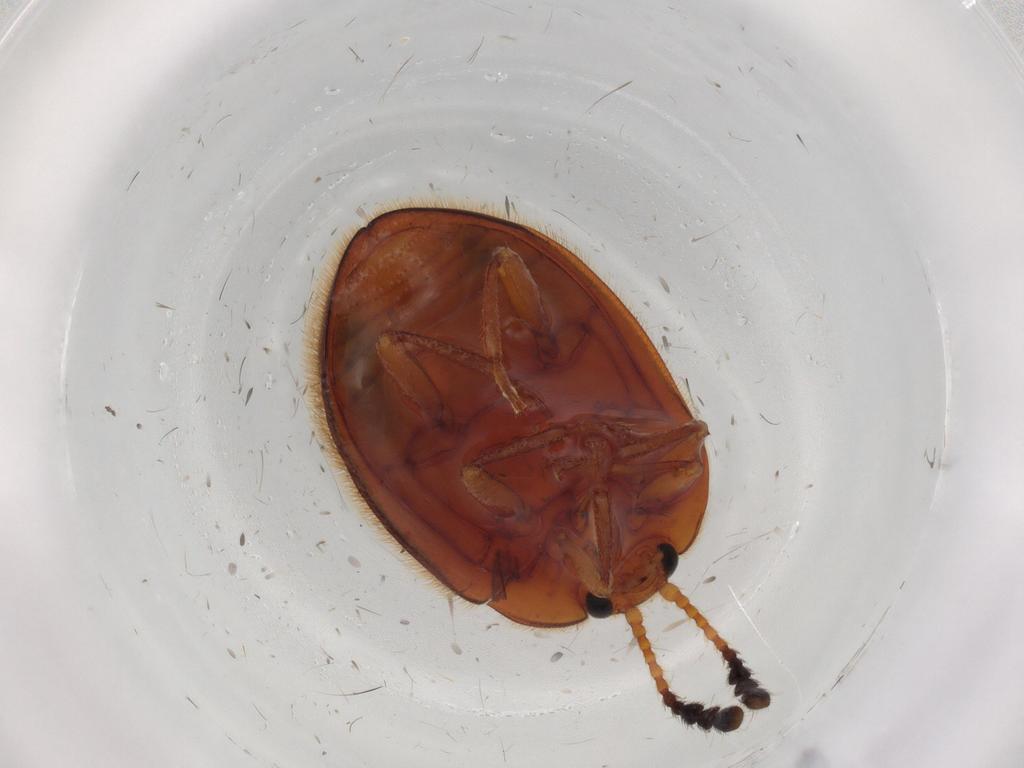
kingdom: Animalia
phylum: Arthropoda
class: Insecta
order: Coleoptera
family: Endomychidae
